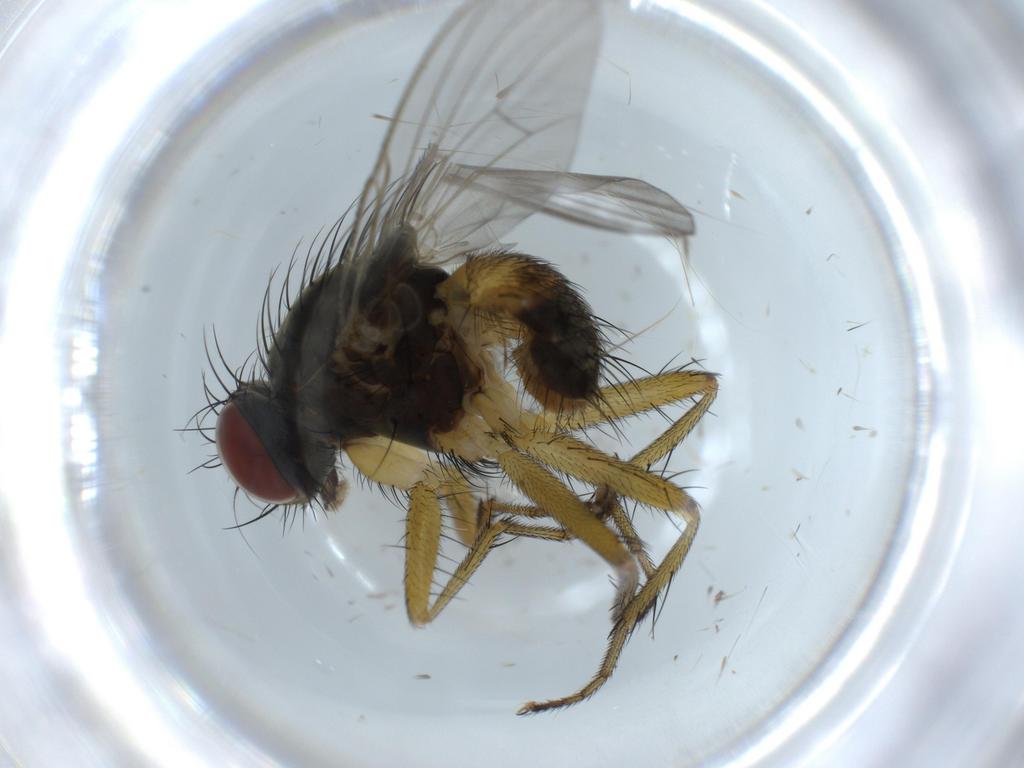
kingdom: Animalia
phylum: Arthropoda
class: Insecta
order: Diptera
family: Muscidae
